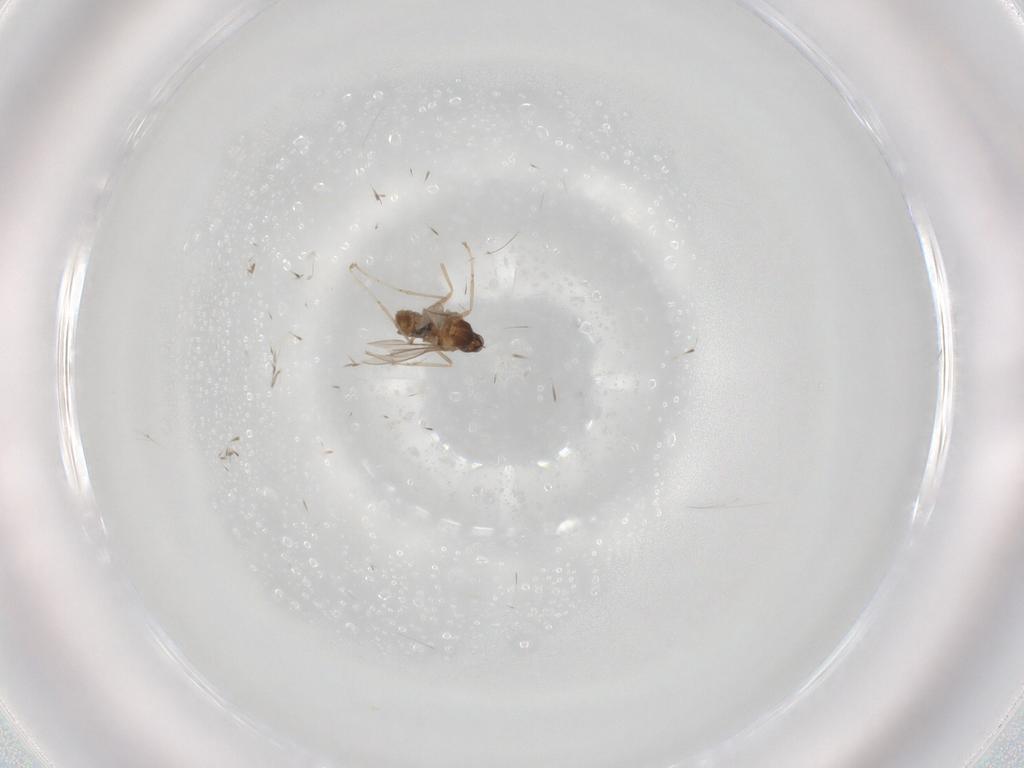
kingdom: Animalia
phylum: Arthropoda
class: Insecta
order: Diptera
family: Cecidomyiidae
